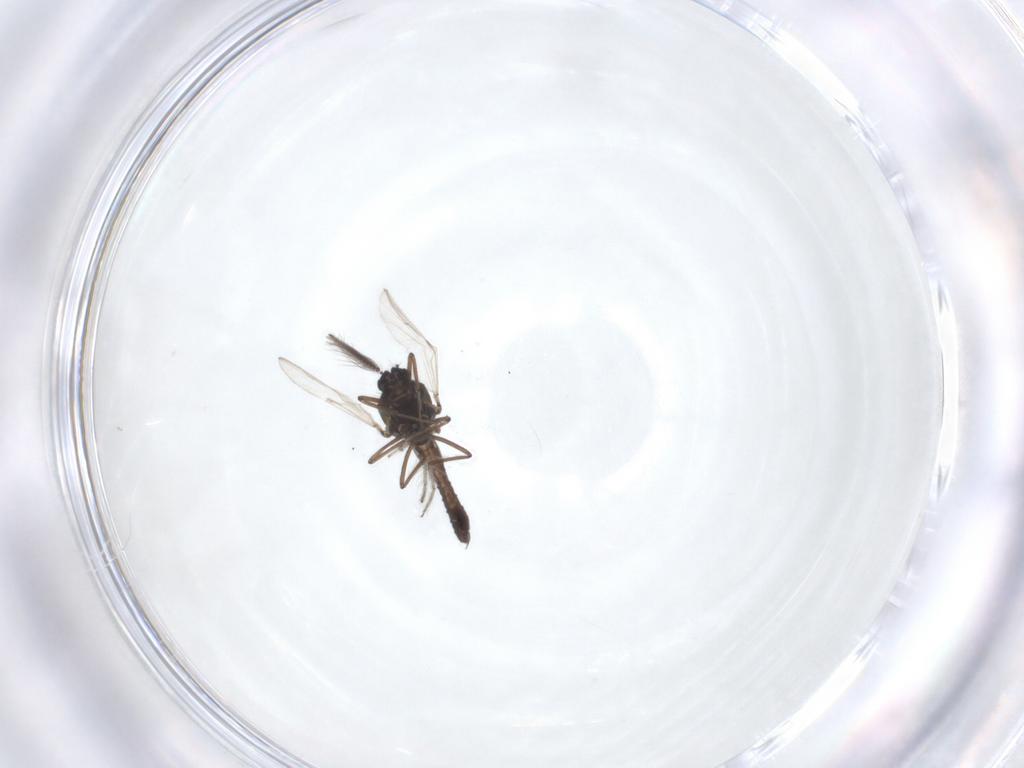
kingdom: Animalia
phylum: Arthropoda
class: Insecta
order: Diptera
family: Ceratopogonidae
